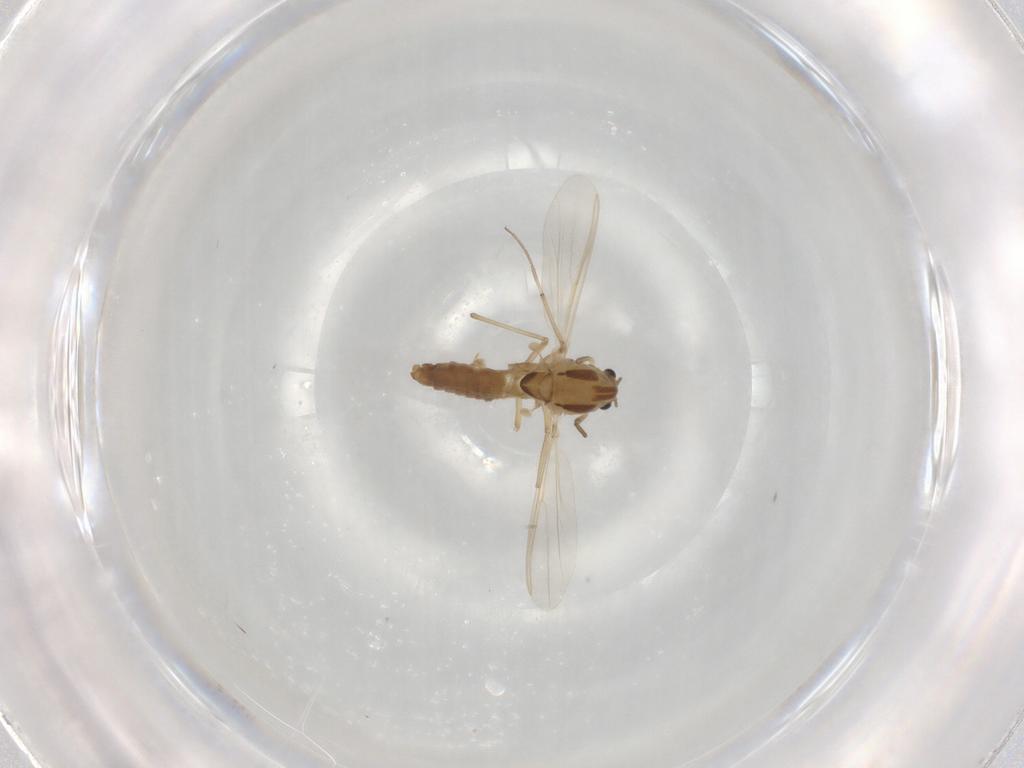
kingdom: Animalia
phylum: Arthropoda
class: Insecta
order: Diptera
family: Chironomidae
